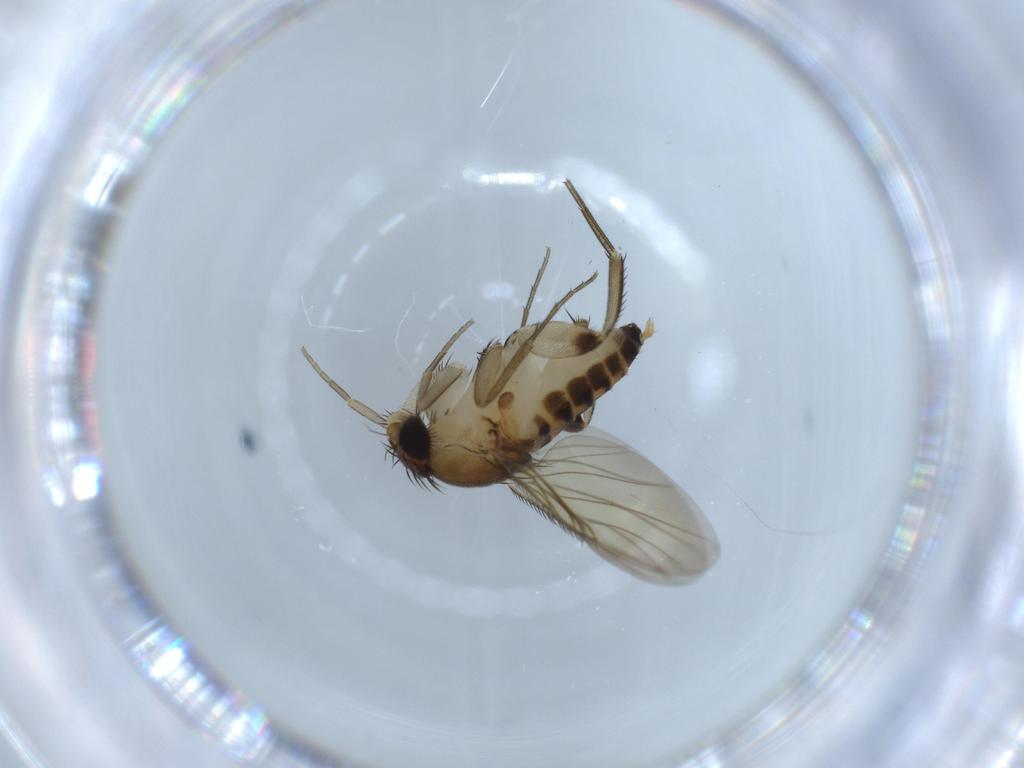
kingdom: Animalia
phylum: Arthropoda
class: Insecta
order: Diptera
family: Phoridae
